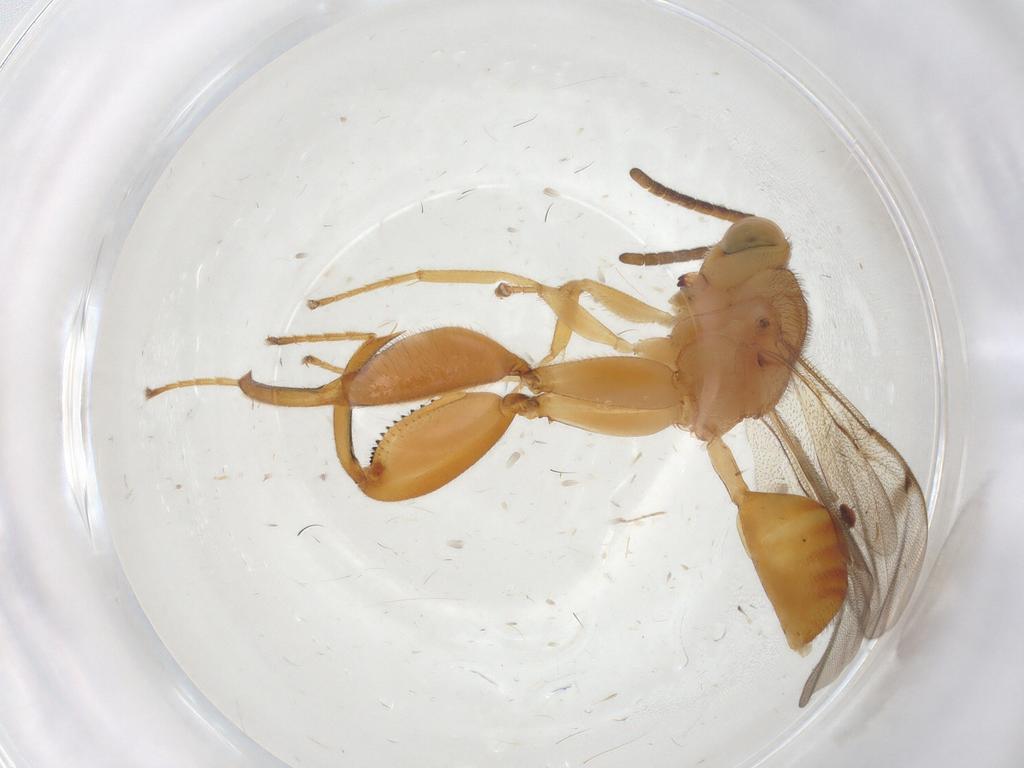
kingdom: Animalia
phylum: Arthropoda
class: Insecta
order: Hymenoptera
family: Chalcididae
